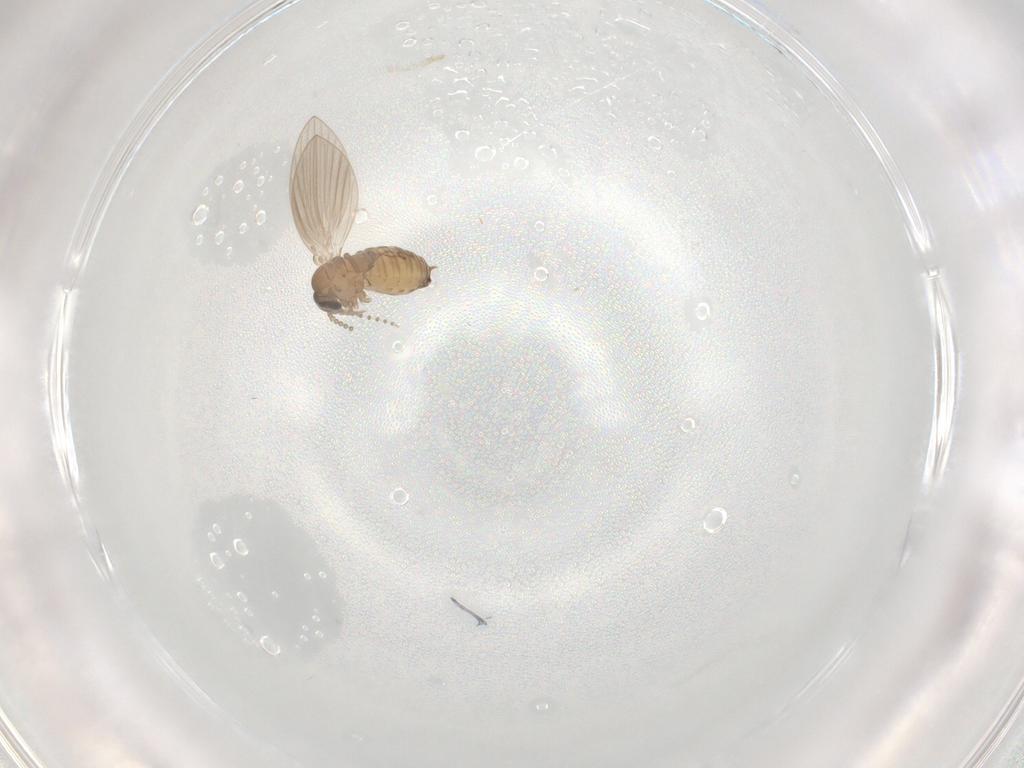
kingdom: Animalia
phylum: Arthropoda
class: Insecta
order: Diptera
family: Psychodidae
